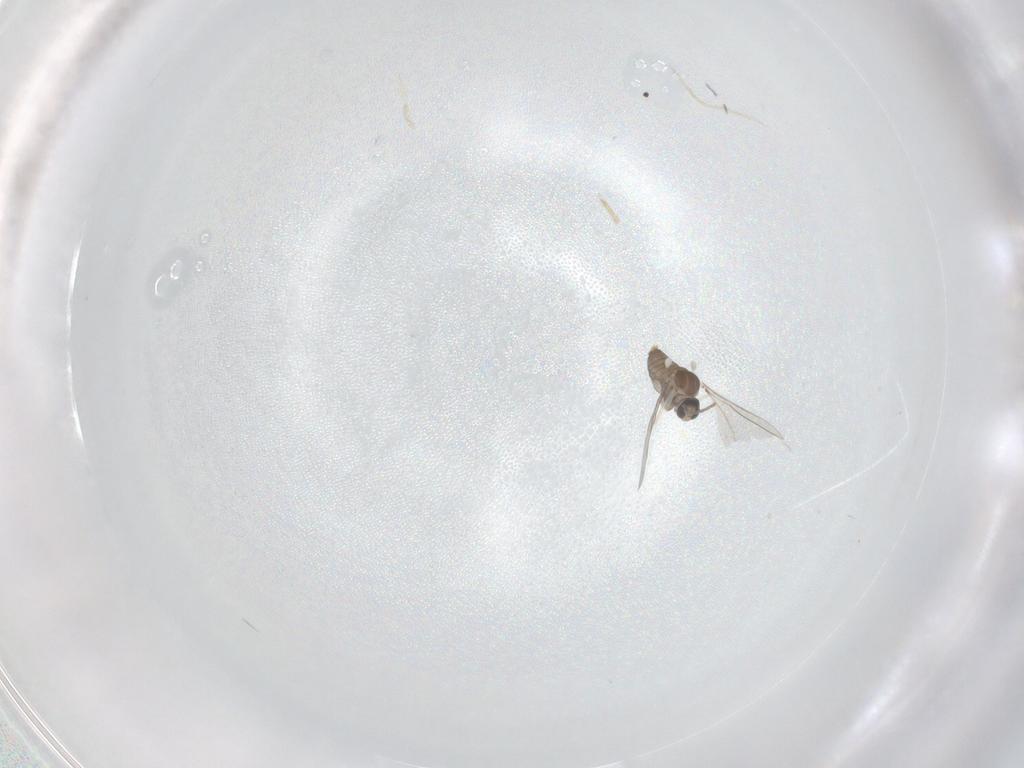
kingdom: Animalia
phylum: Arthropoda
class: Insecta
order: Diptera
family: Cecidomyiidae
